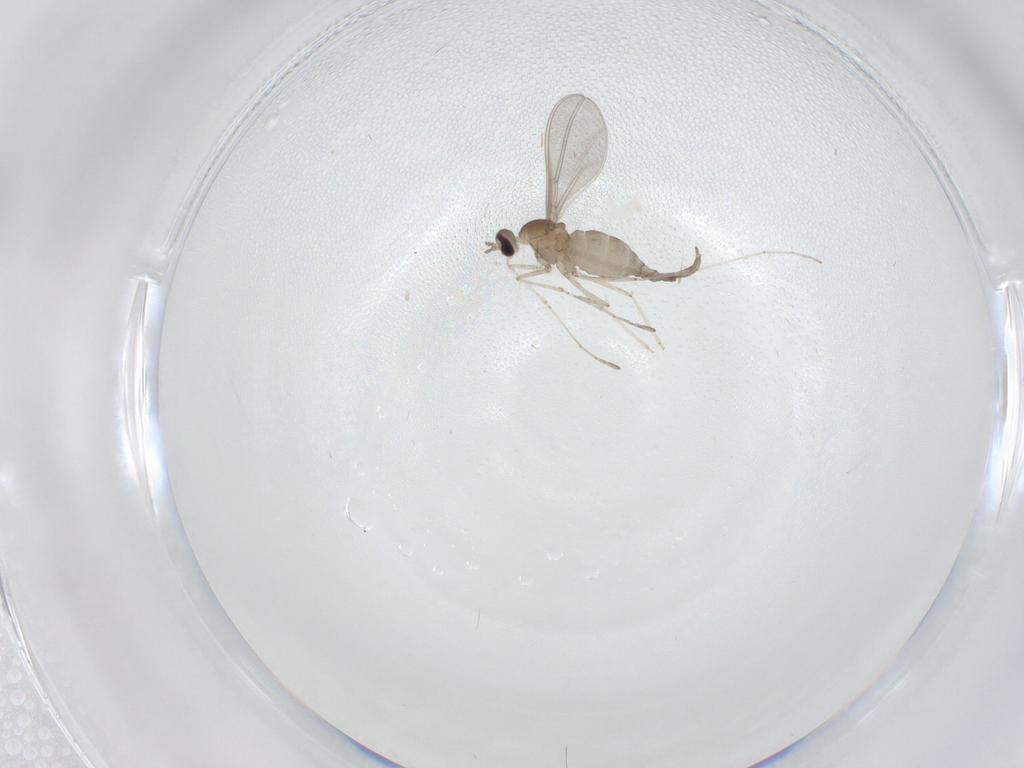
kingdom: Animalia
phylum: Arthropoda
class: Insecta
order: Diptera
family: Cecidomyiidae
